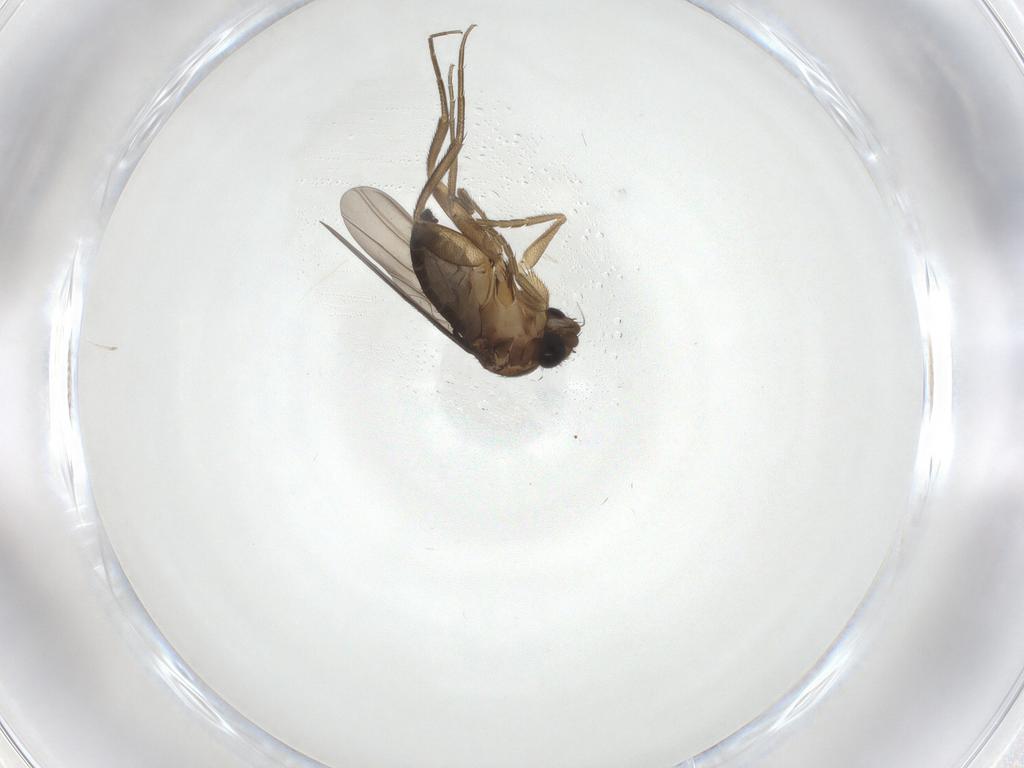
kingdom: Animalia
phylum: Arthropoda
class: Insecta
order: Diptera
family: Phoridae
